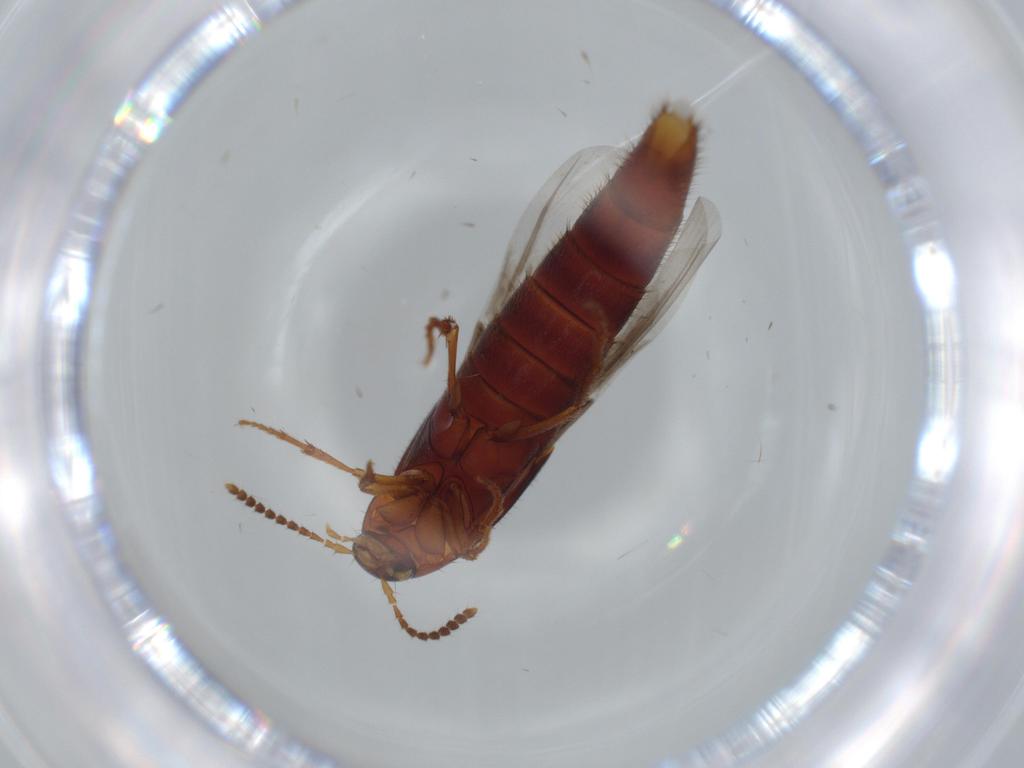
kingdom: Animalia
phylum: Arthropoda
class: Insecta
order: Coleoptera
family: Staphylinidae
